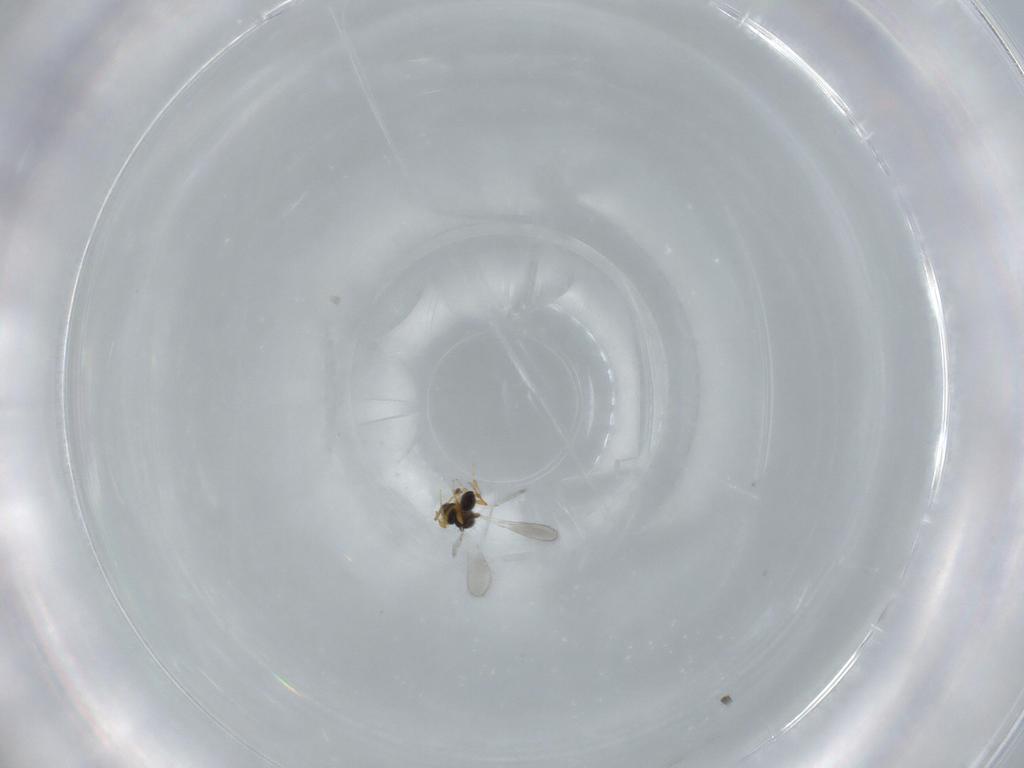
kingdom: Animalia
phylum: Arthropoda
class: Insecta
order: Hymenoptera
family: Platygastridae
